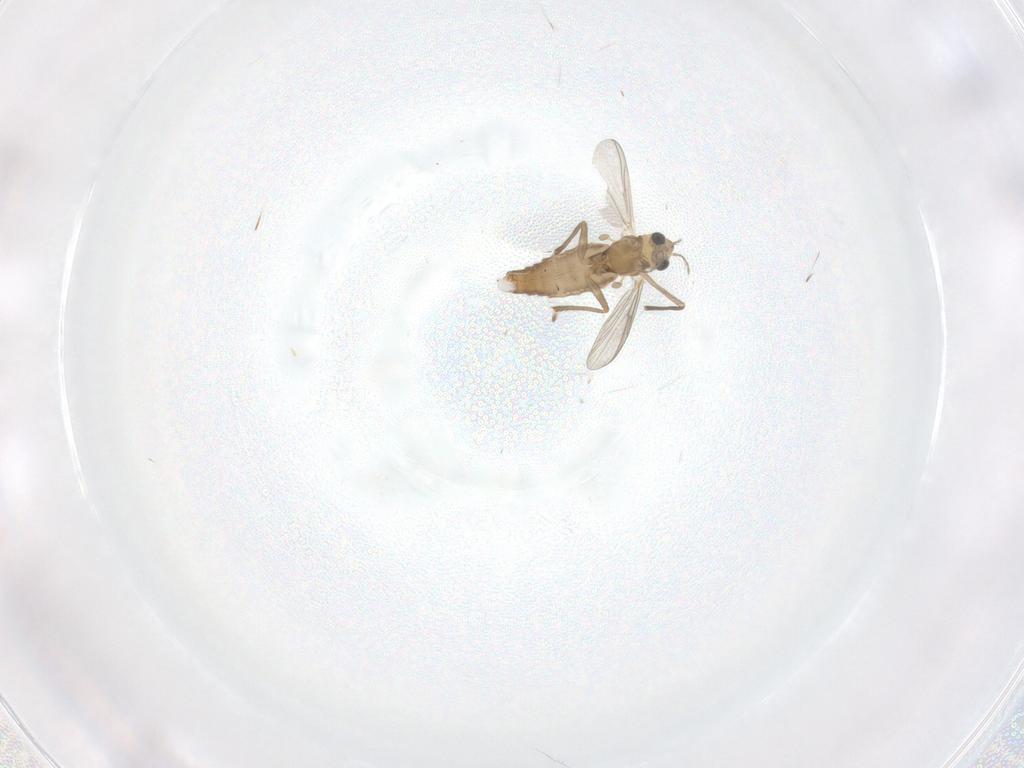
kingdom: Animalia
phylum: Arthropoda
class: Insecta
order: Diptera
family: Chironomidae
